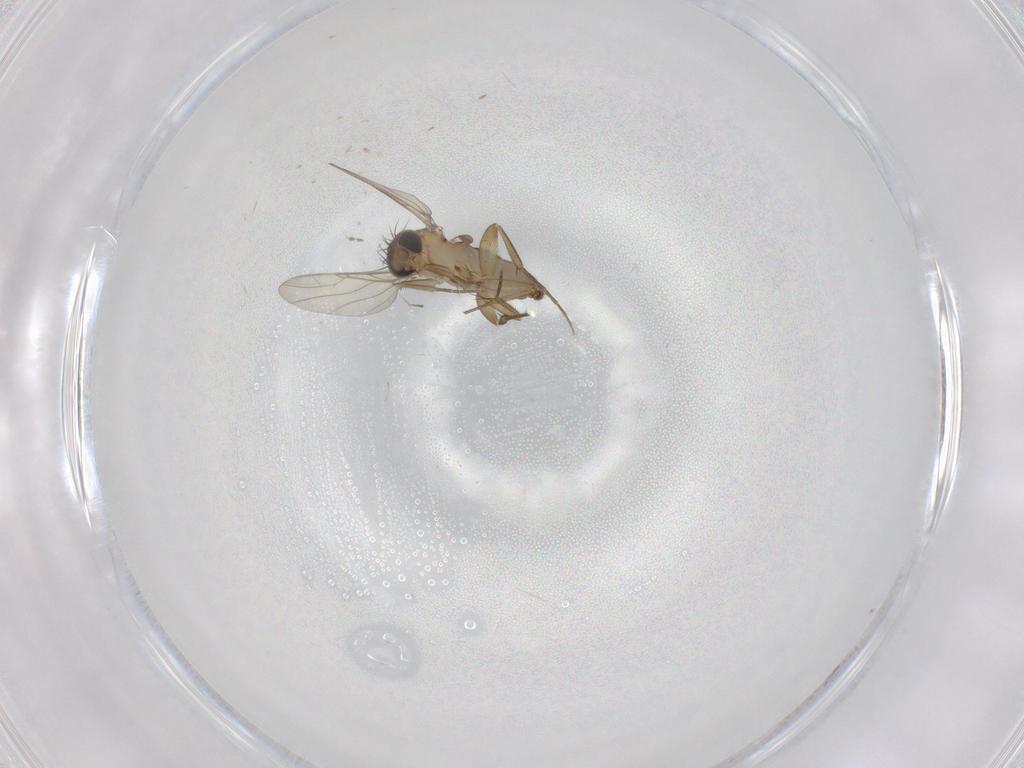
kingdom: Animalia
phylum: Arthropoda
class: Insecta
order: Diptera
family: Phoridae
